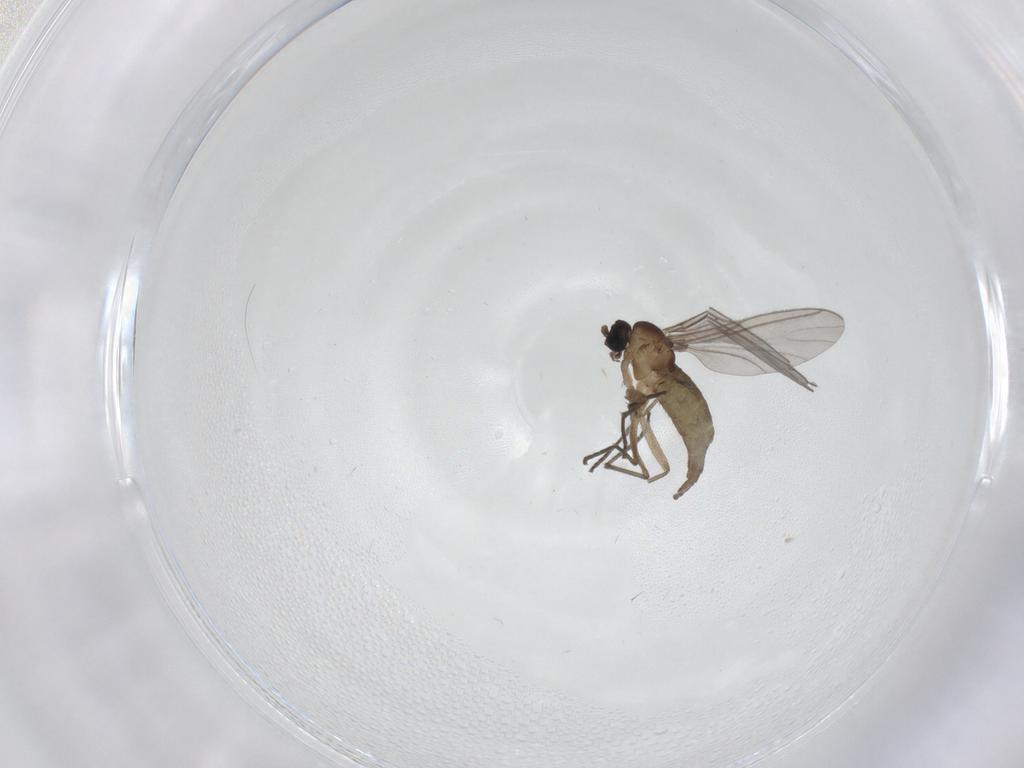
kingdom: Animalia
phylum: Arthropoda
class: Insecta
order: Diptera
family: Sciaridae
